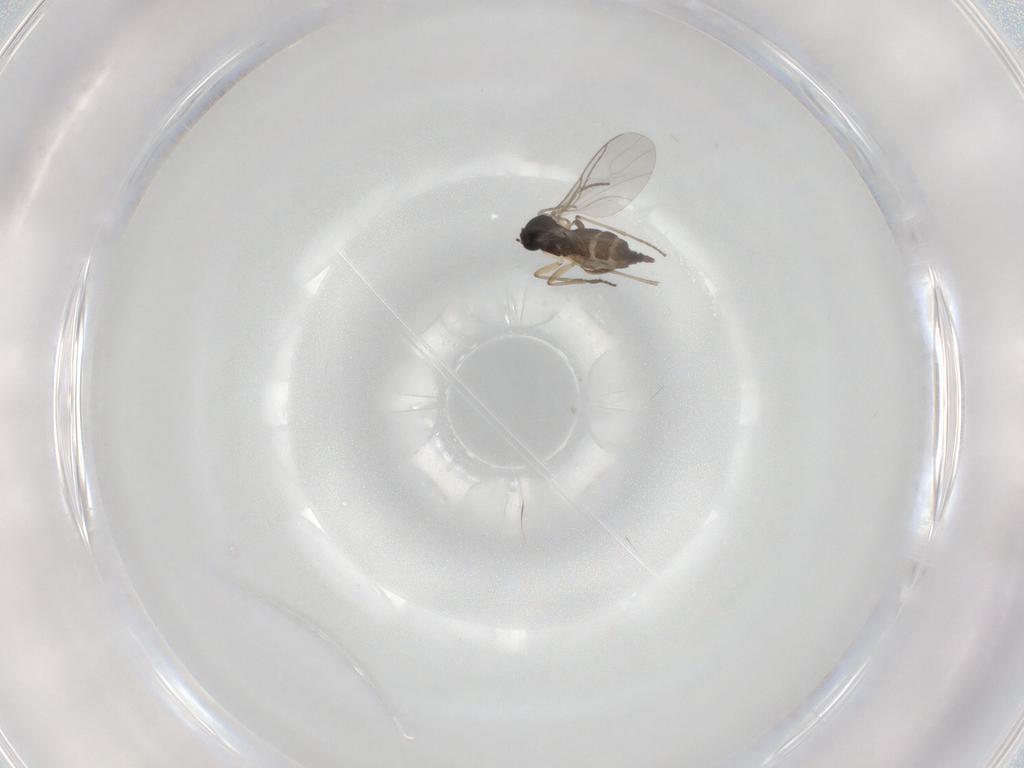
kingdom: Animalia
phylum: Arthropoda
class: Insecta
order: Diptera
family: Sciaridae
